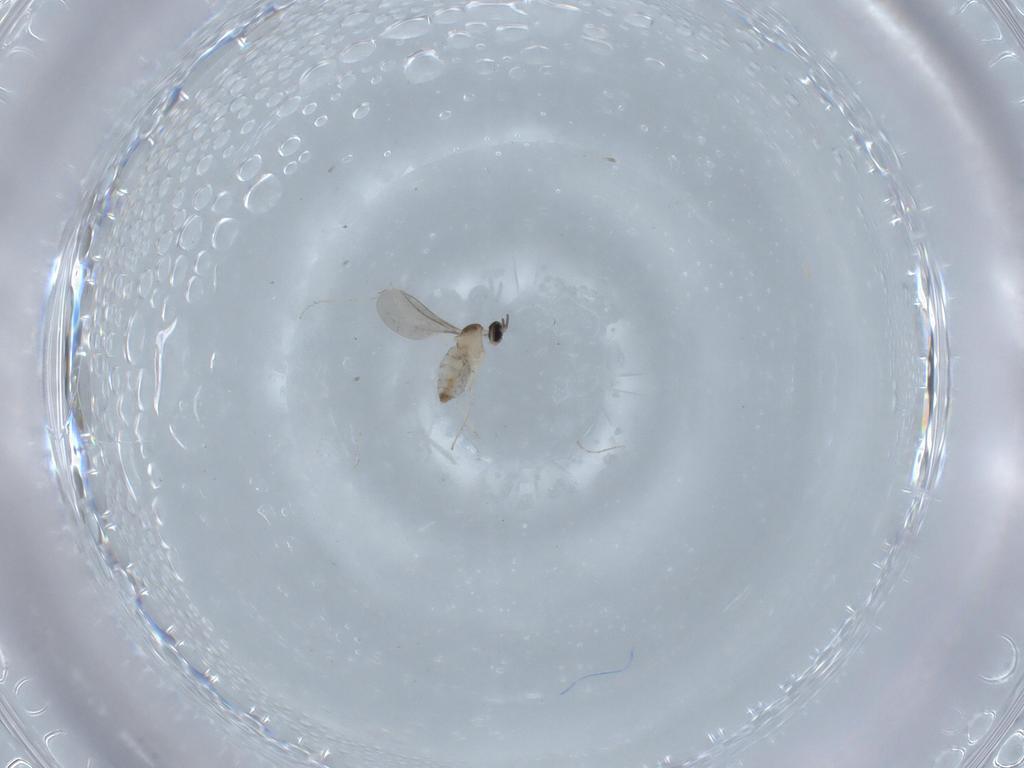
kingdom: Animalia
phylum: Arthropoda
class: Insecta
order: Diptera
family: Cecidomyiidae
